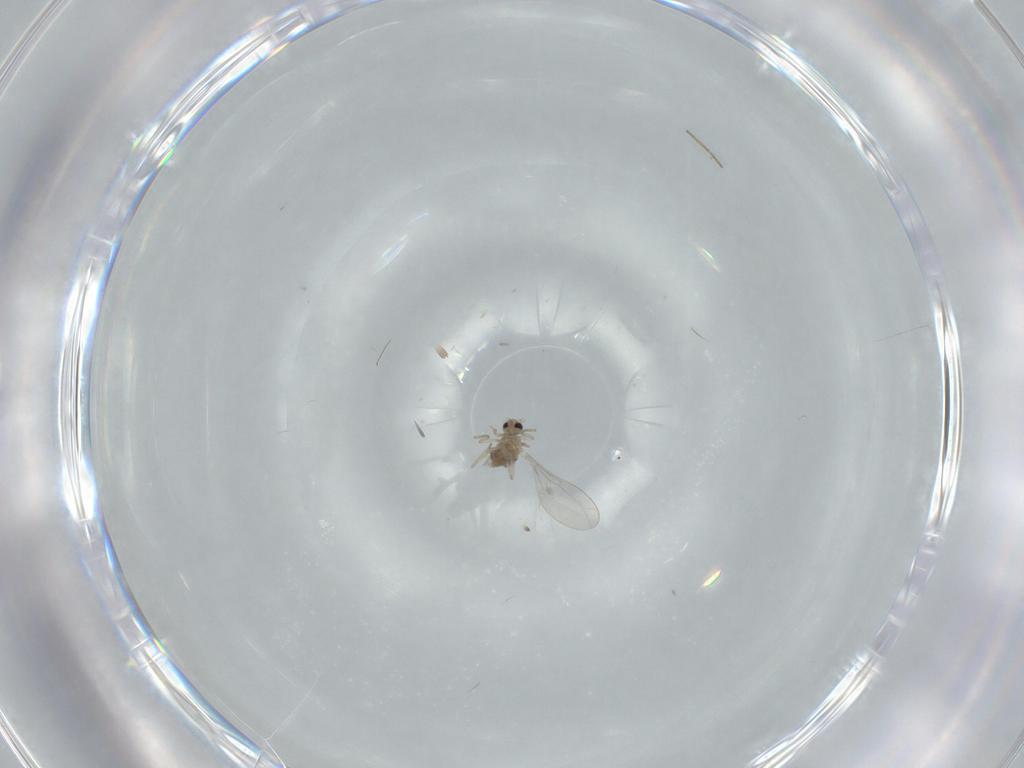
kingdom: Animalia
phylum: Arthropoda
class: Insecta
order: Diptera
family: Cecidomyiidae
